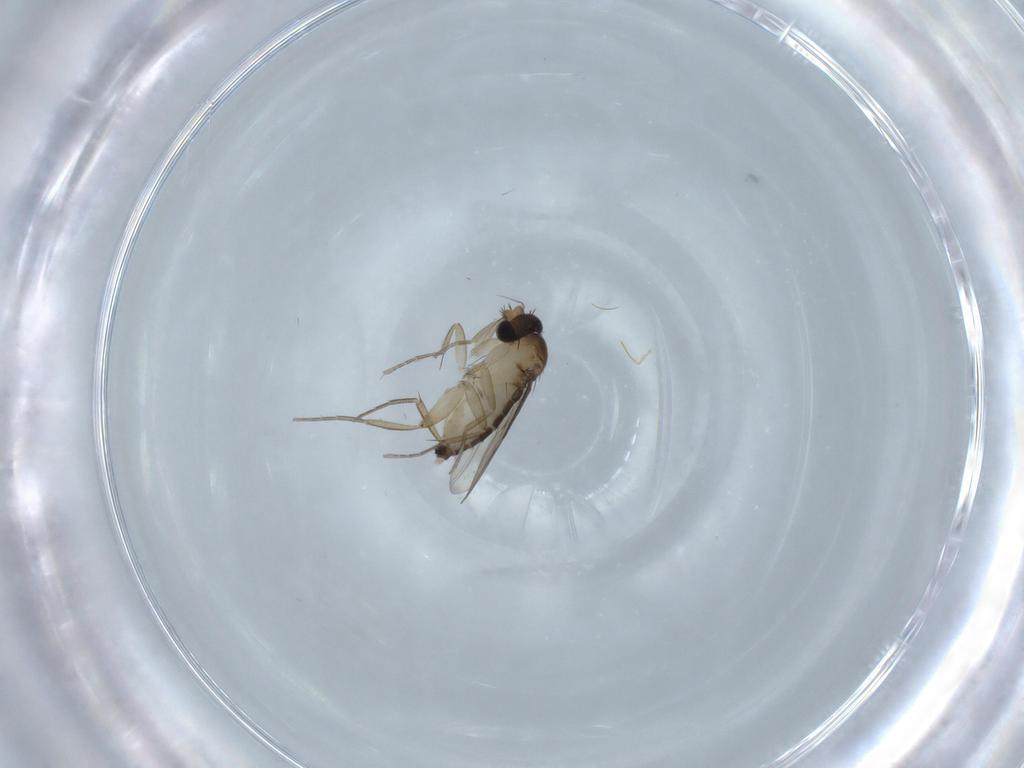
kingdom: Animalia
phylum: Arthropoda
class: Insecta
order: Diptera
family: Phoridae
